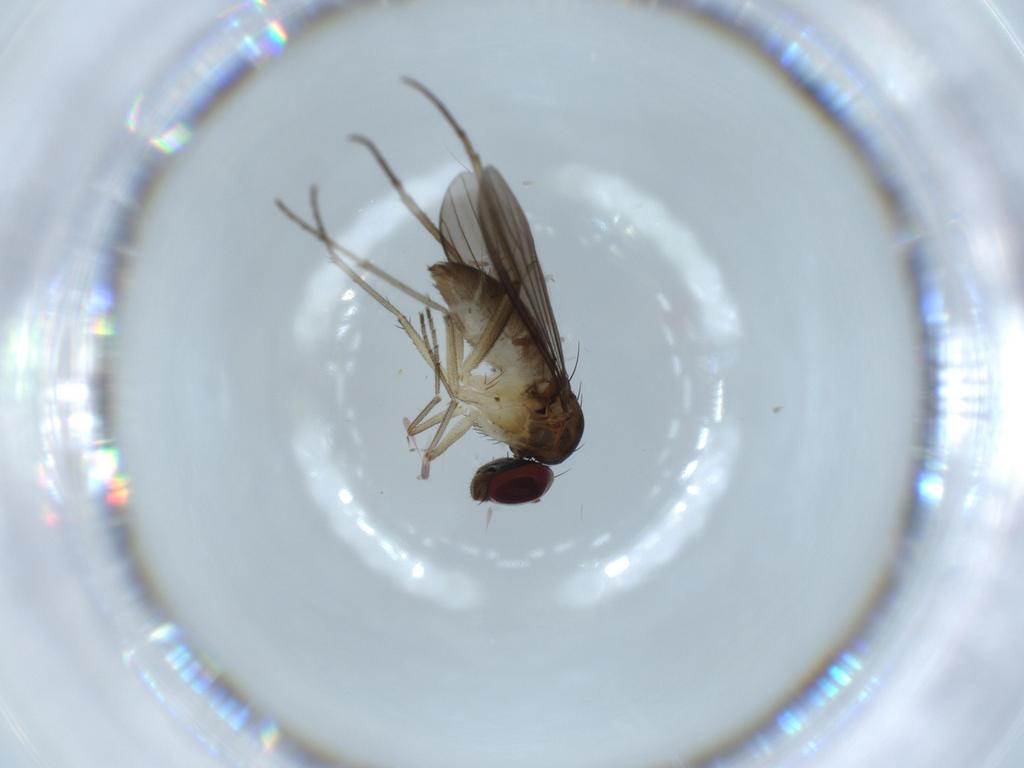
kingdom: Animalia
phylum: Arthropoda
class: Insecta
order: Diptera
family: Dolichopodidae
